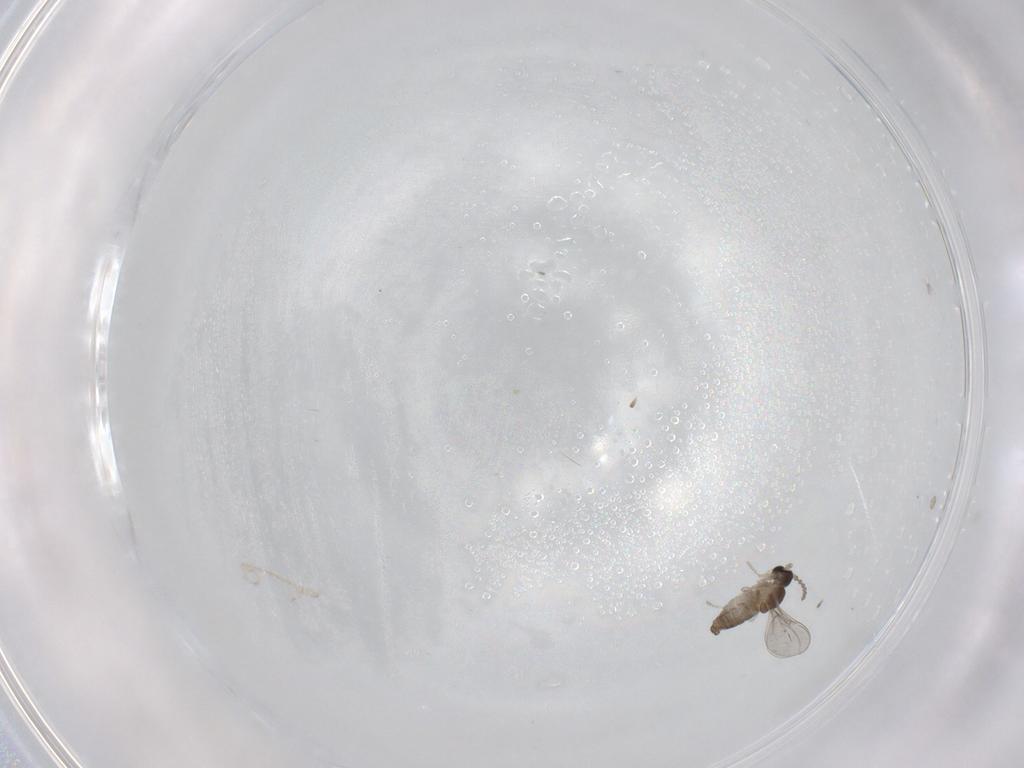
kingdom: Animalia
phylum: Arthropoda
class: Insecta
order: Diptera
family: Cecidomyiidae
